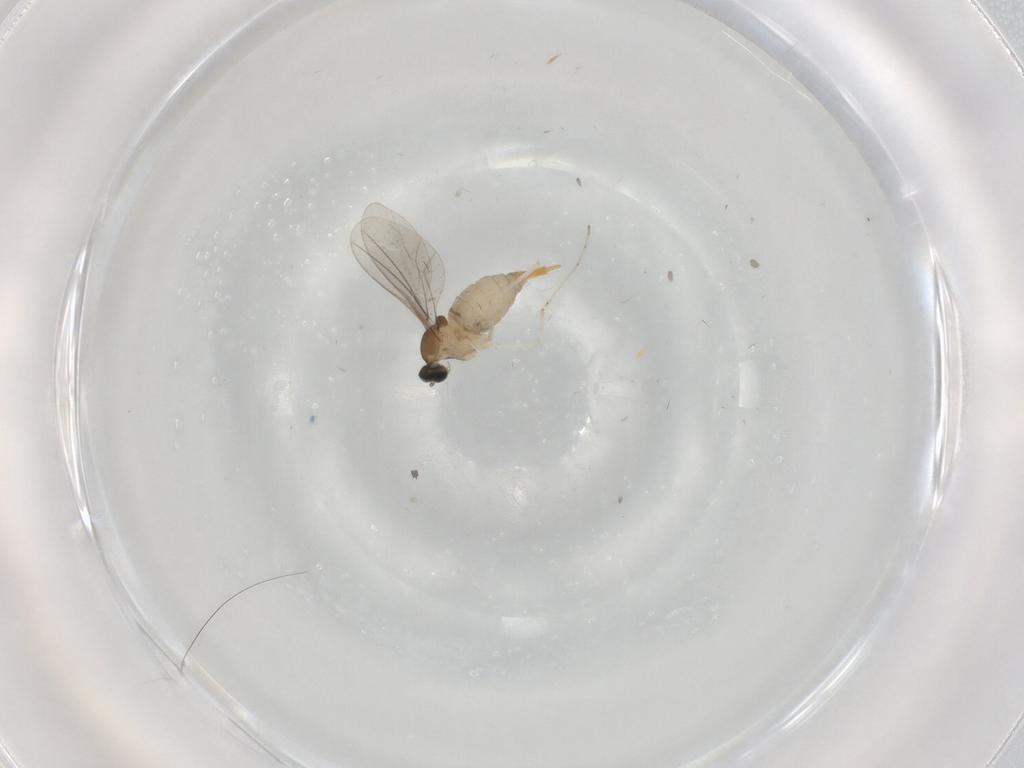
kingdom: Animalia
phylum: Arthropoda
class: Insecta
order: Diptera
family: Cecidomyiidae
